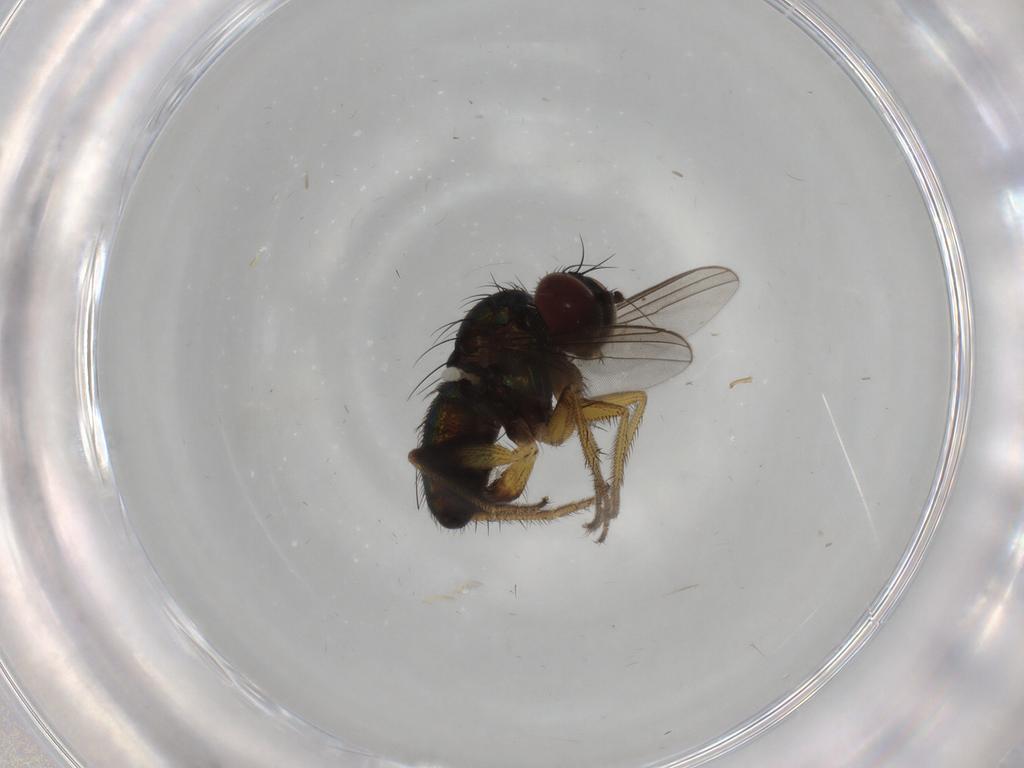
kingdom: Animalia
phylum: Arthropoda
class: Insecta
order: Diptera
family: Dolichopodidae
